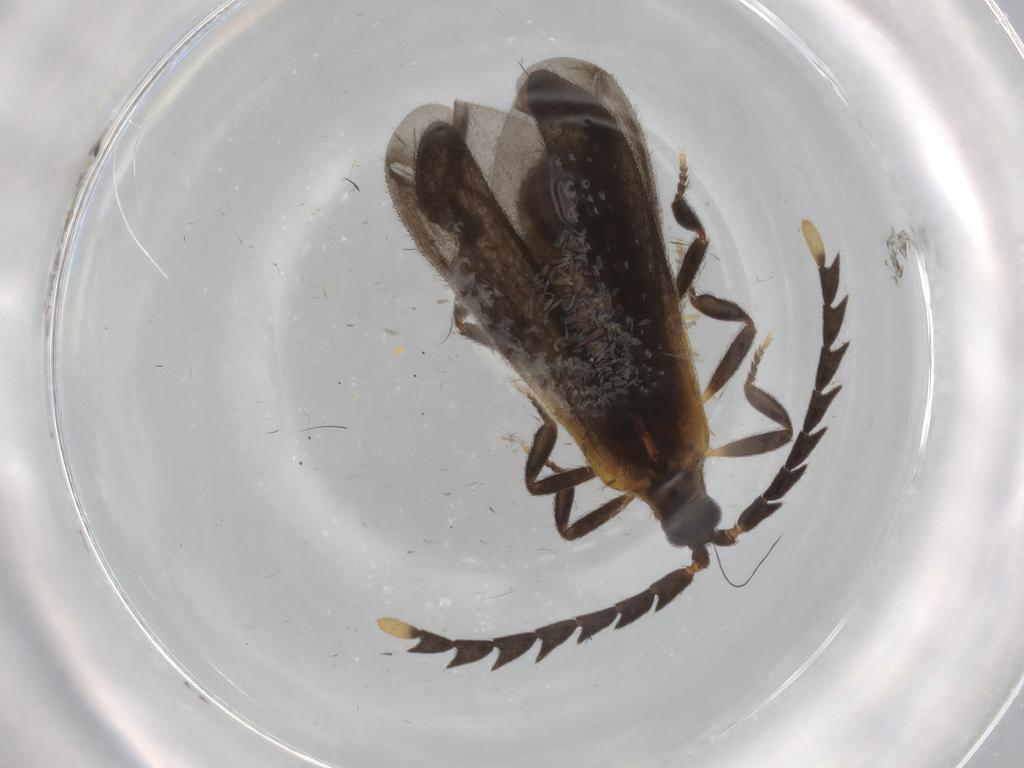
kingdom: Animalia
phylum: Arthropoda
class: Insecta
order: Coleoptera
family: Lycidae
